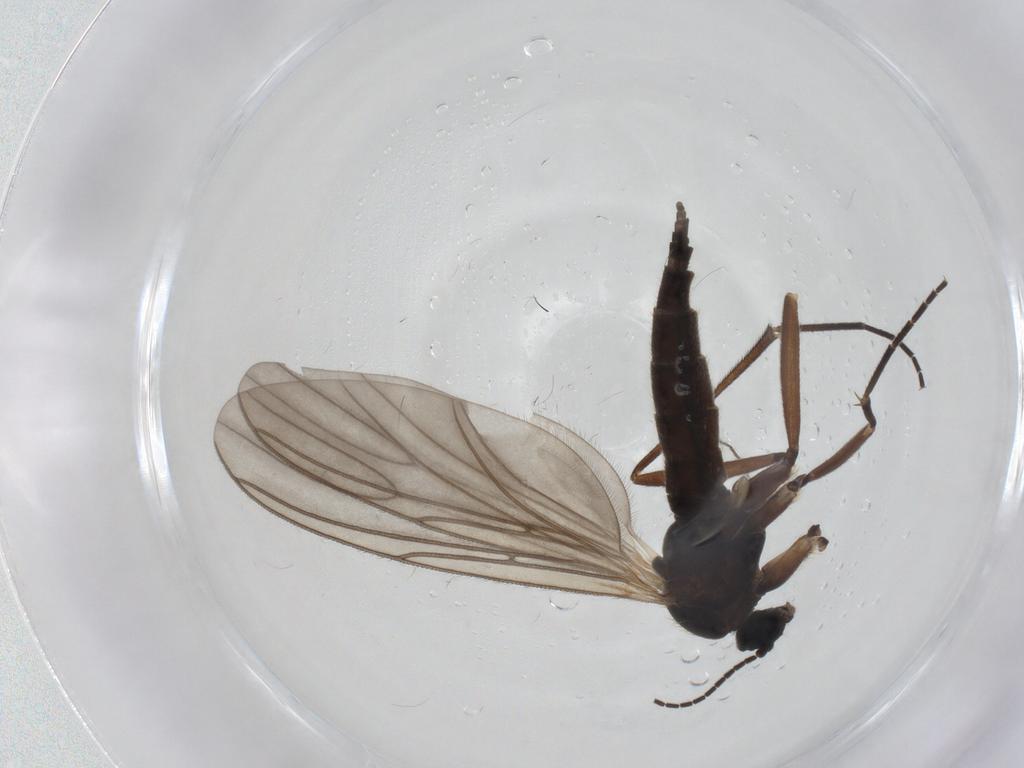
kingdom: Animalia
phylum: Arthropoda
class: Insecta
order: Diptera
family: Sciaridae
